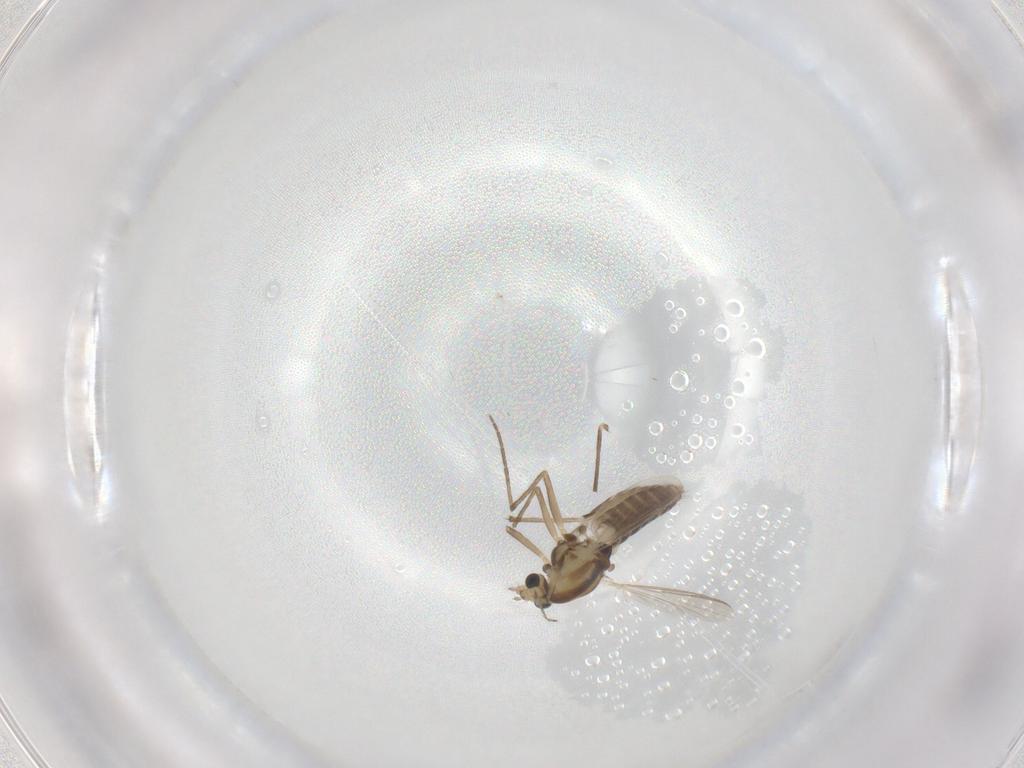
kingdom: Animalia
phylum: Arthropoda
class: Insecta
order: Diptera
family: Chironomidae
